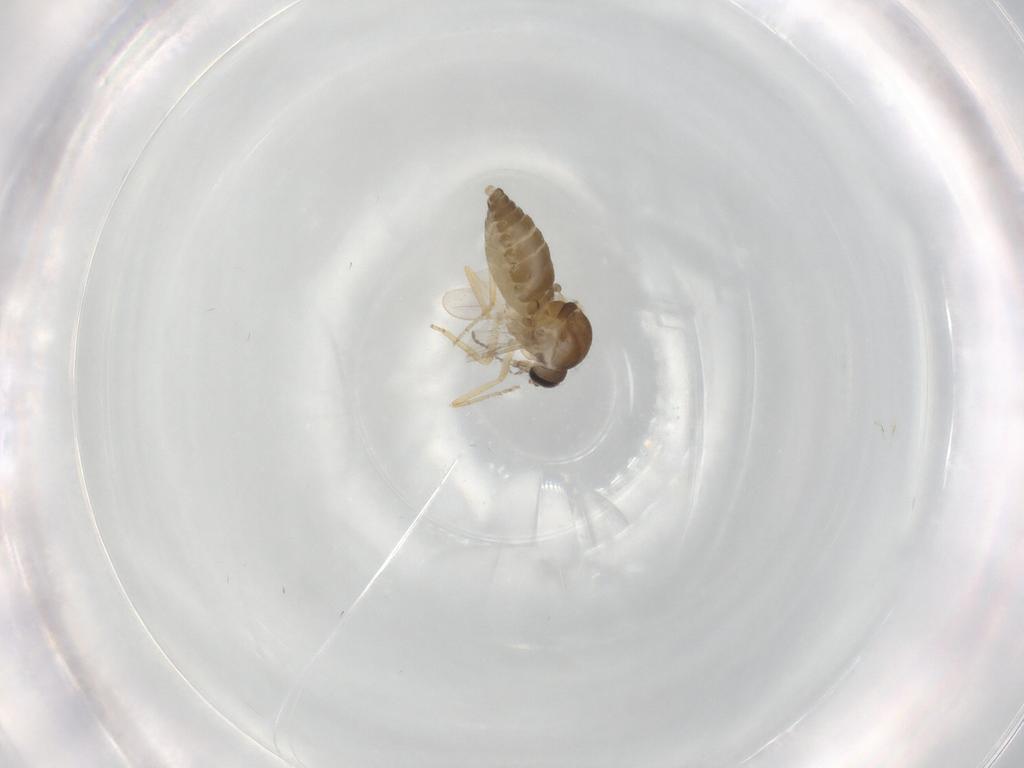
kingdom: Animalia
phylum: Arthropoda
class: Insecta
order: Diptera
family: Ceratopogonidae
